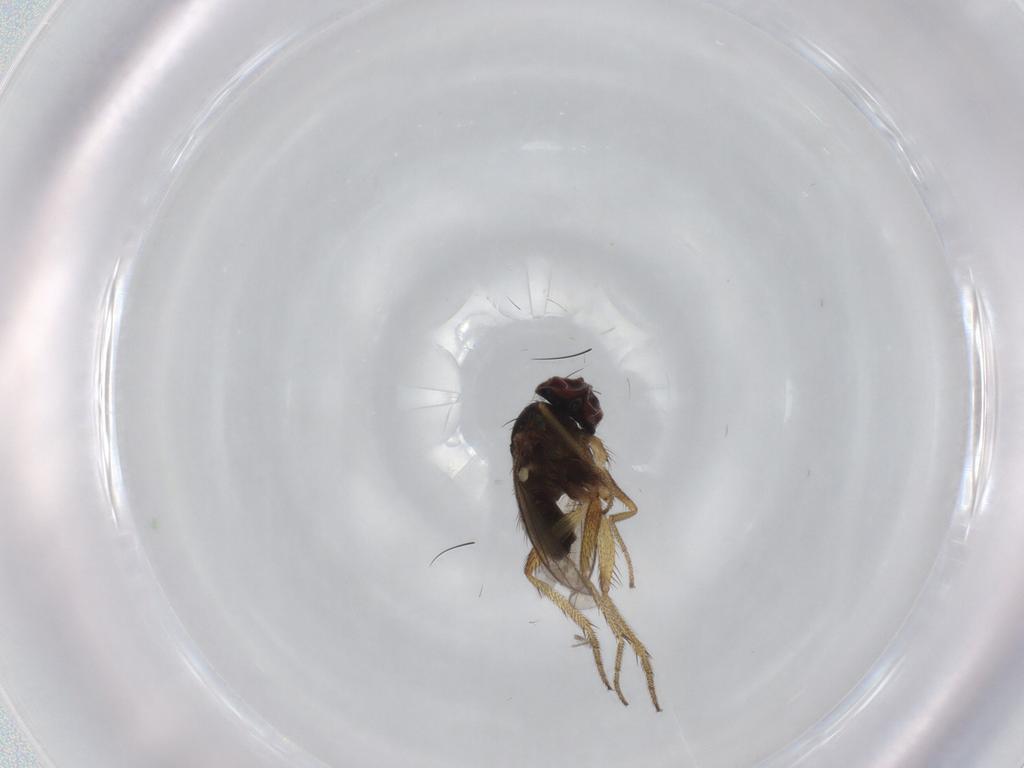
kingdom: Animalia
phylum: Arthropoda
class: Insecta
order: Diptera
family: Ceratopogonidae
